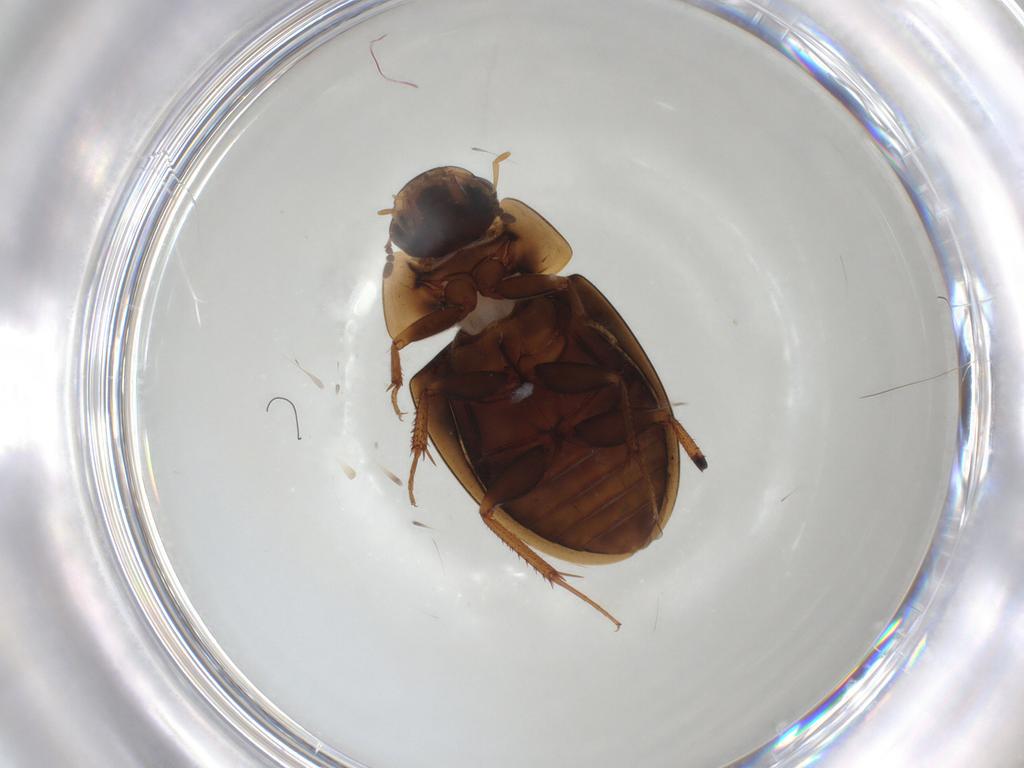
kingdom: Animalia
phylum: Arthropoda
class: Insecta
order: Coleoptera
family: Hydrophilidae
